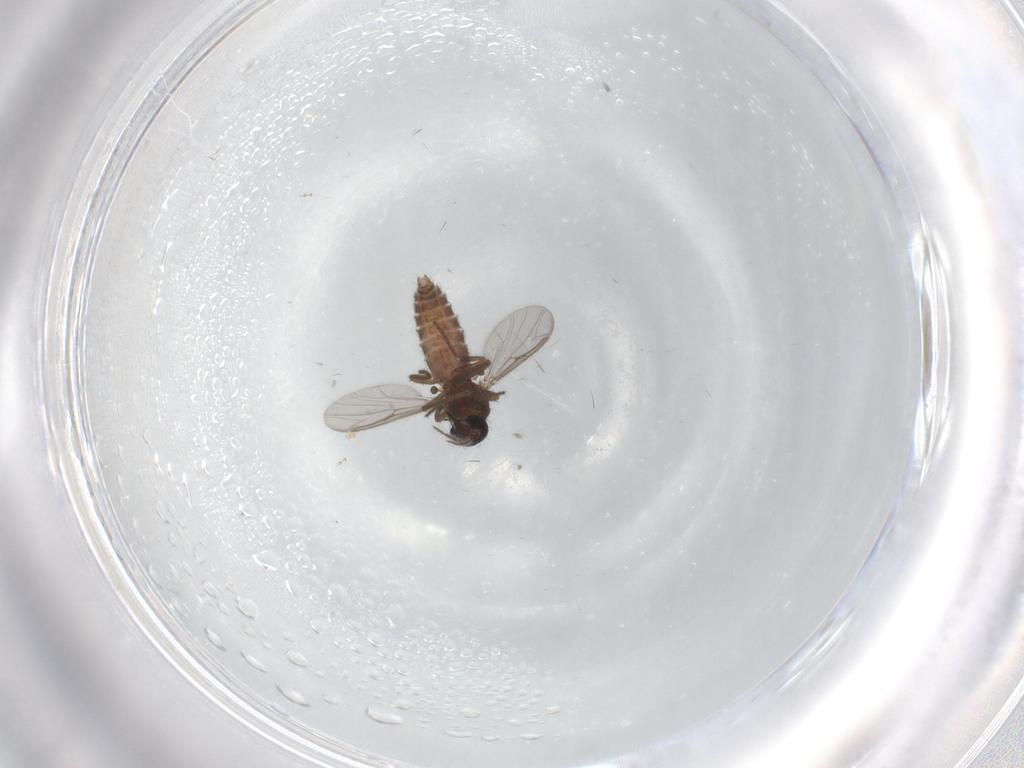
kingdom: Animalia
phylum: Arthropoda
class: Insecta
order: Diptera
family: Ceratopogonidae
